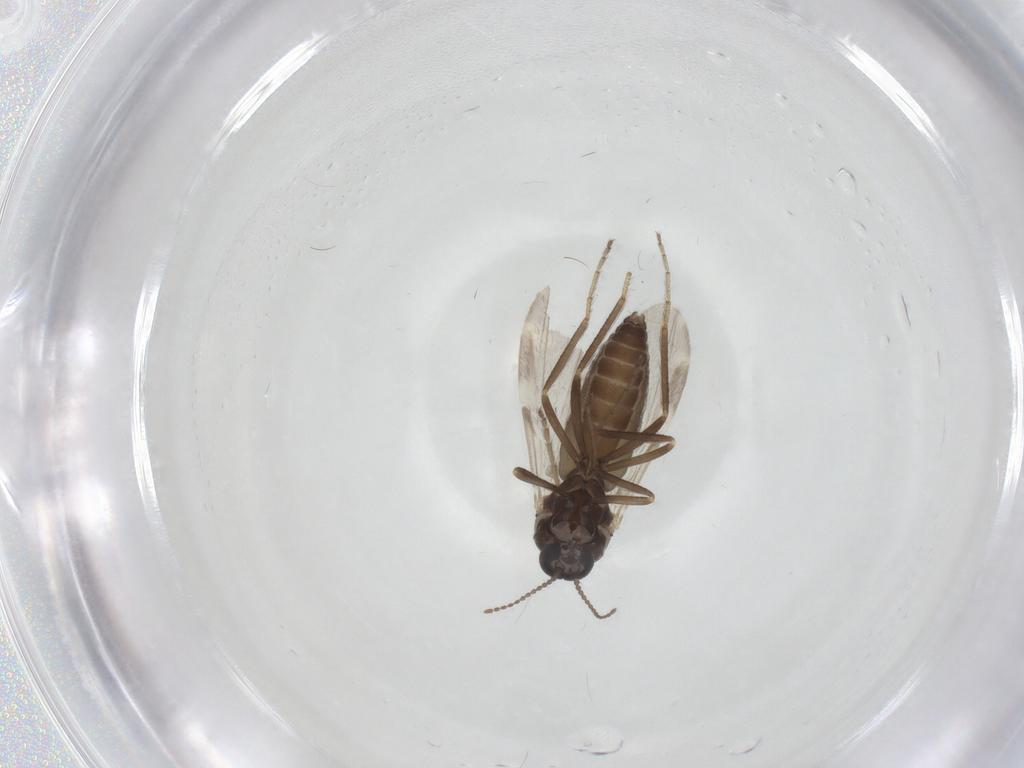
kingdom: Animalia
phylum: Arthropoda
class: Insecta
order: Diptera
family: Ceratopogonidae
